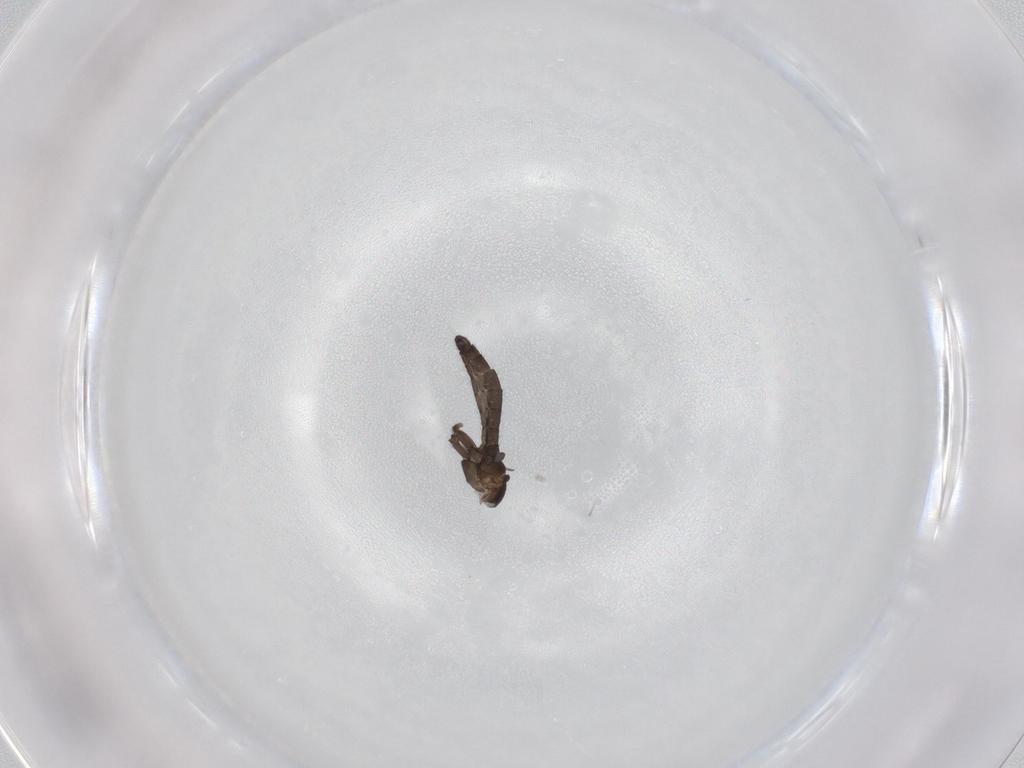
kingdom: Animalia
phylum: Arthropoda
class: Insecta
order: Diptera
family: Sciaridae
